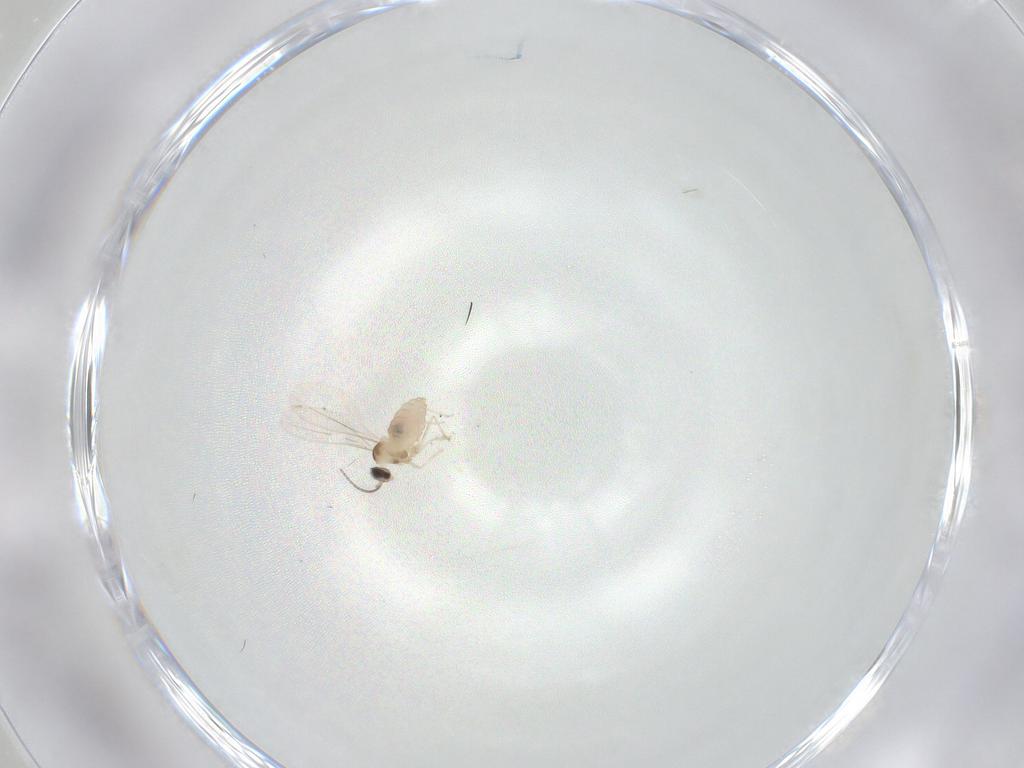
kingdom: Animalia
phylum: Arthropoda
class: Insecta
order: Diptera
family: Cecidomyiidae
